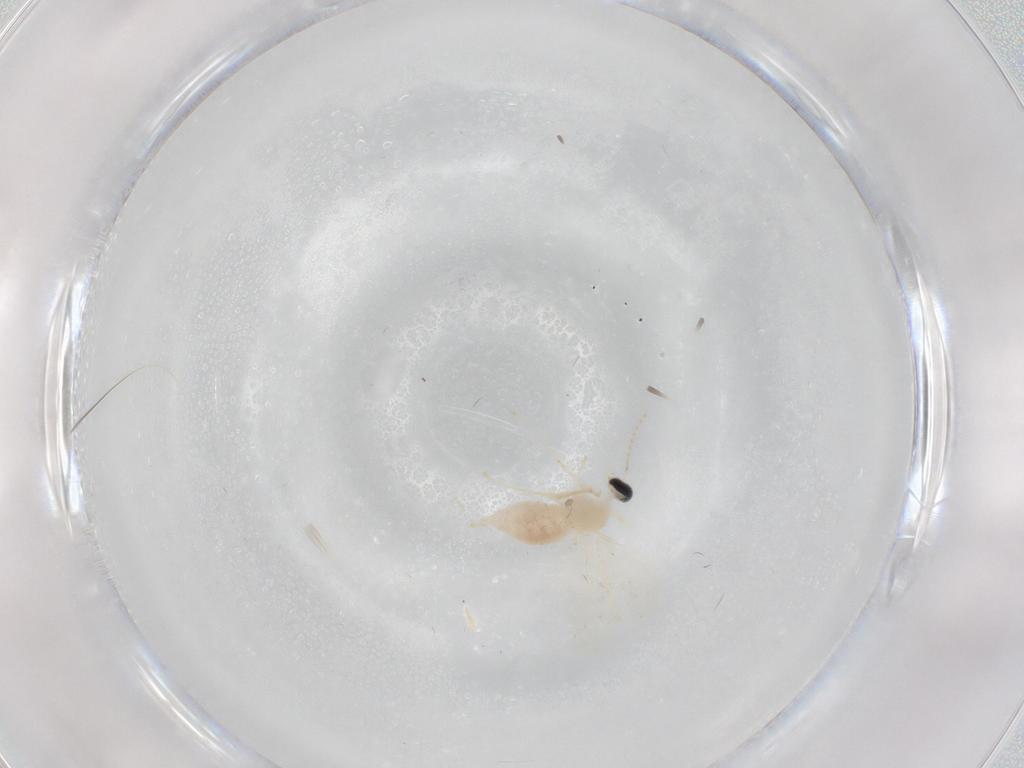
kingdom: Animalia
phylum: Arthropoda
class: Insecta
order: Diptera
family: Cecidomyiidae
